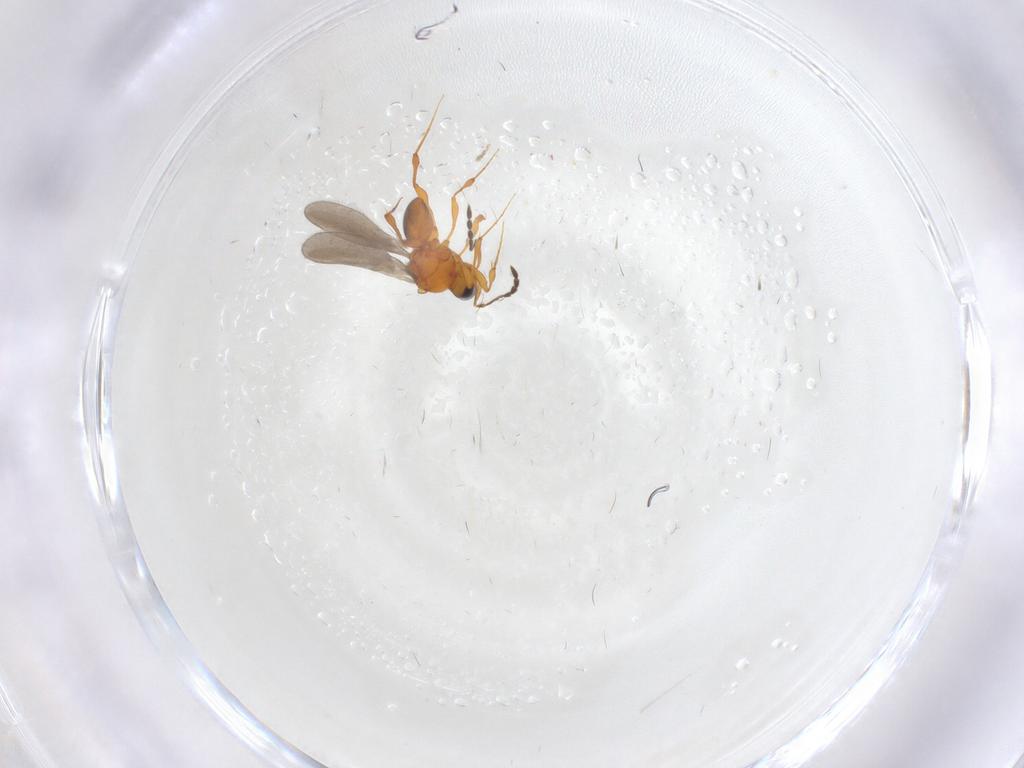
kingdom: Animalia
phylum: Arthropoda
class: Insecta
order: Hymenoptera
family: Platygastridae
